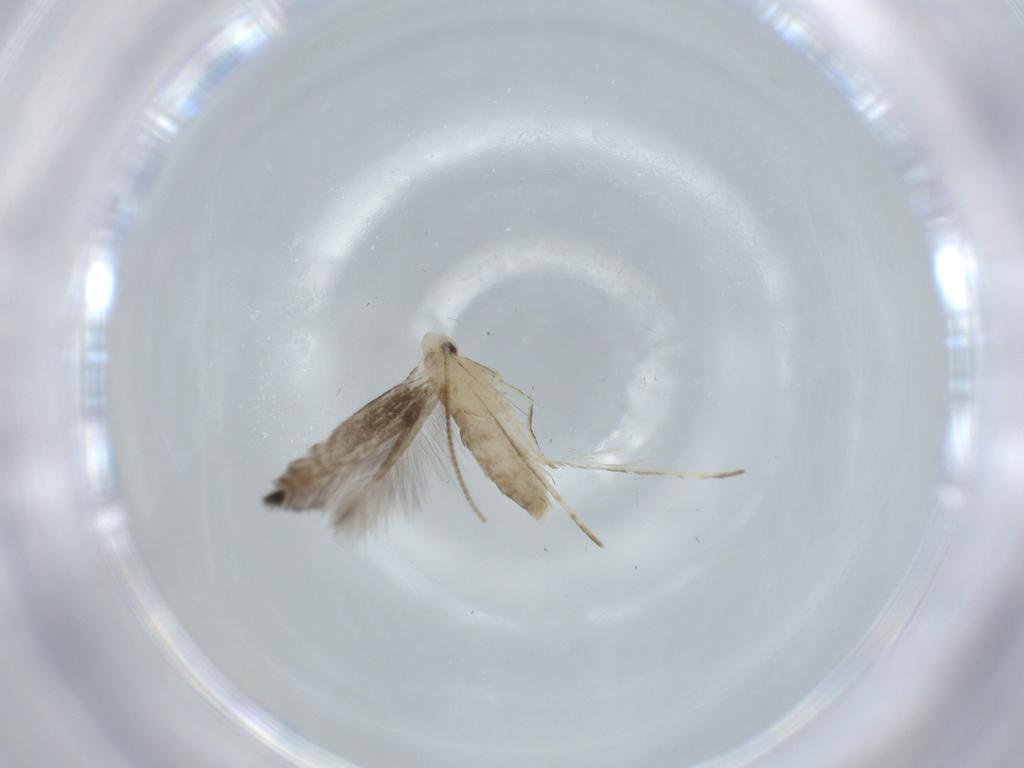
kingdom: Animalia
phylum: Arthropoda
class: Insecta
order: Lepidoptera
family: Gracillariidae
